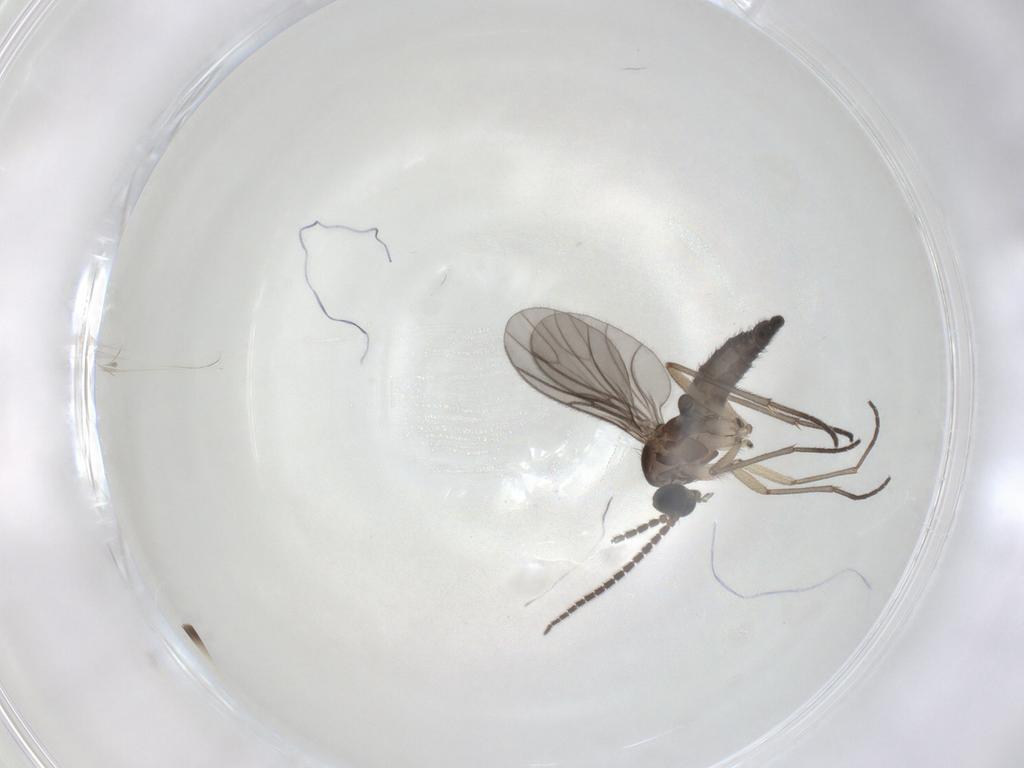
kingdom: Animalia
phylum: Arthropoda
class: Insecta
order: Diptera
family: Sciaridae
